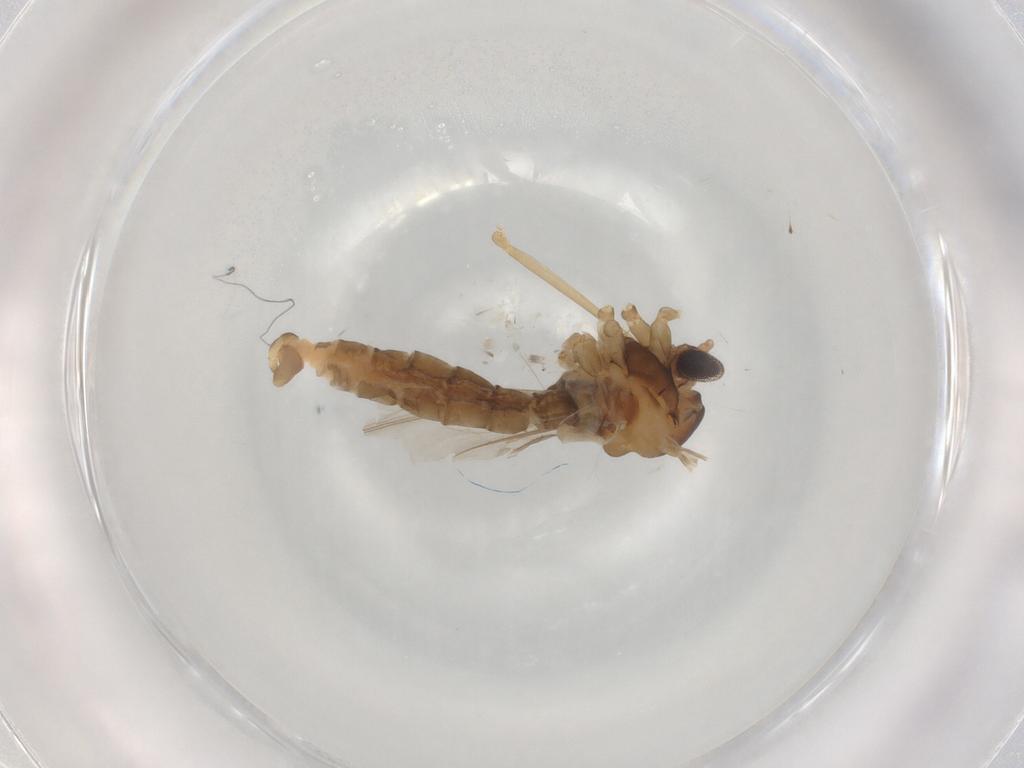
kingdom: Animalia
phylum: Arthropoda
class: Insecta
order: Diptera
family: Cecidomyiidae
